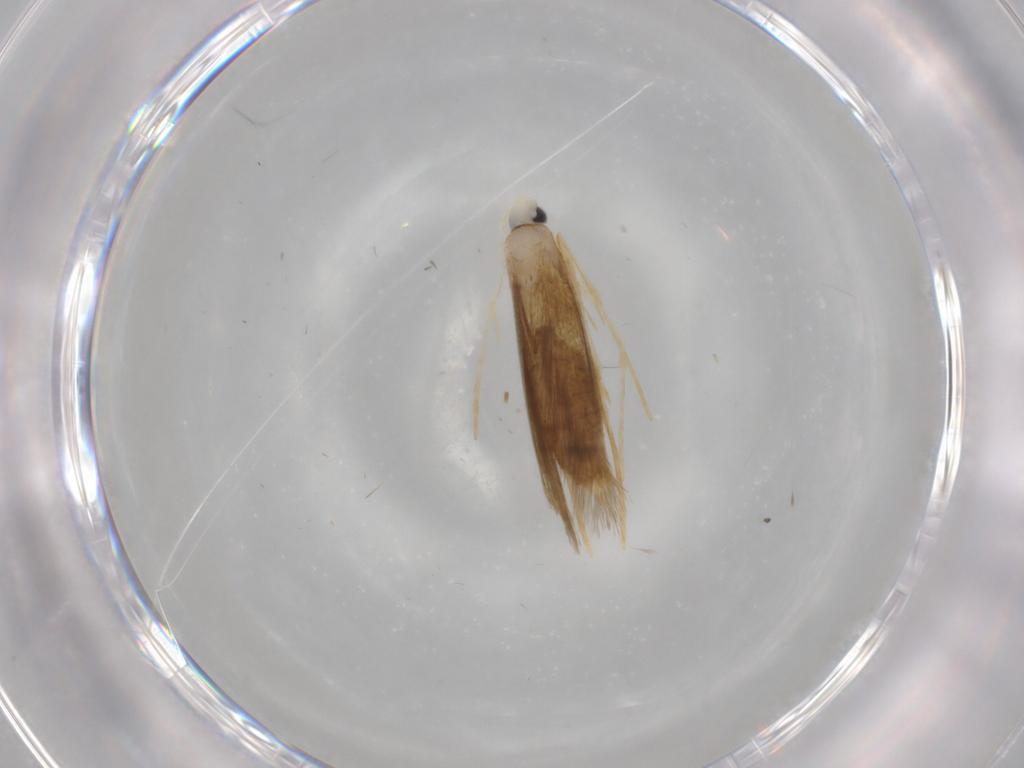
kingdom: Animalia
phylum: Arthropoda
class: Insecta
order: Lepidoptera
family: Lyonetiidae
